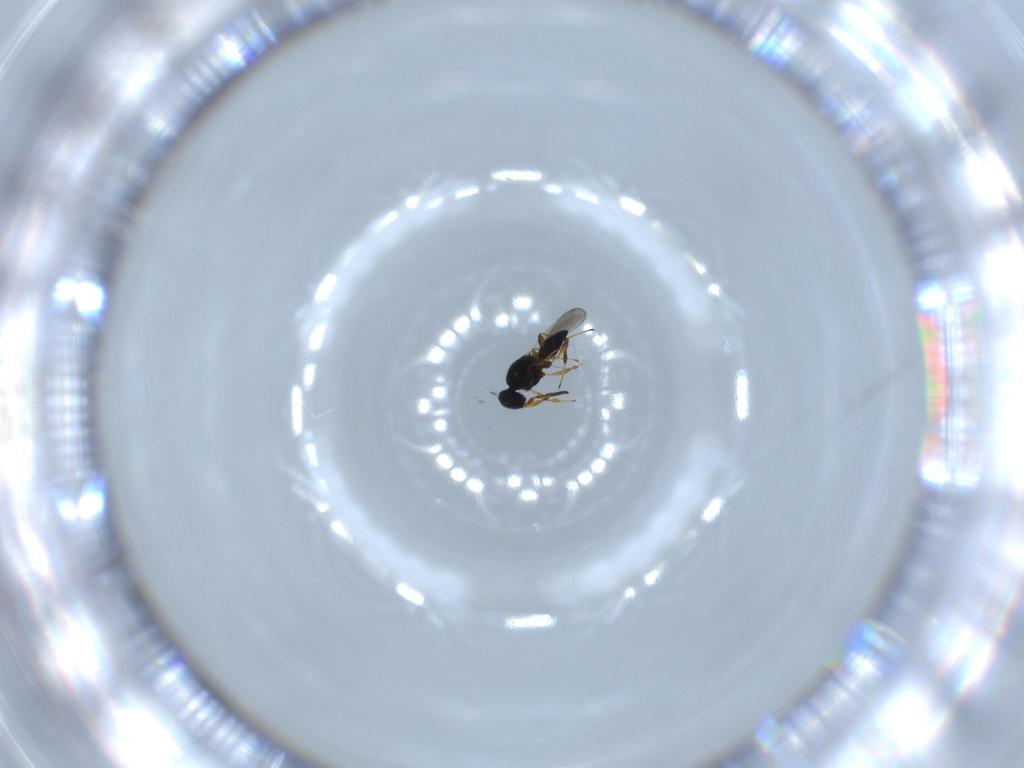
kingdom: Animalia
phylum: Arthropoda
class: Insecta
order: Hymenoptera
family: Platygastridae
